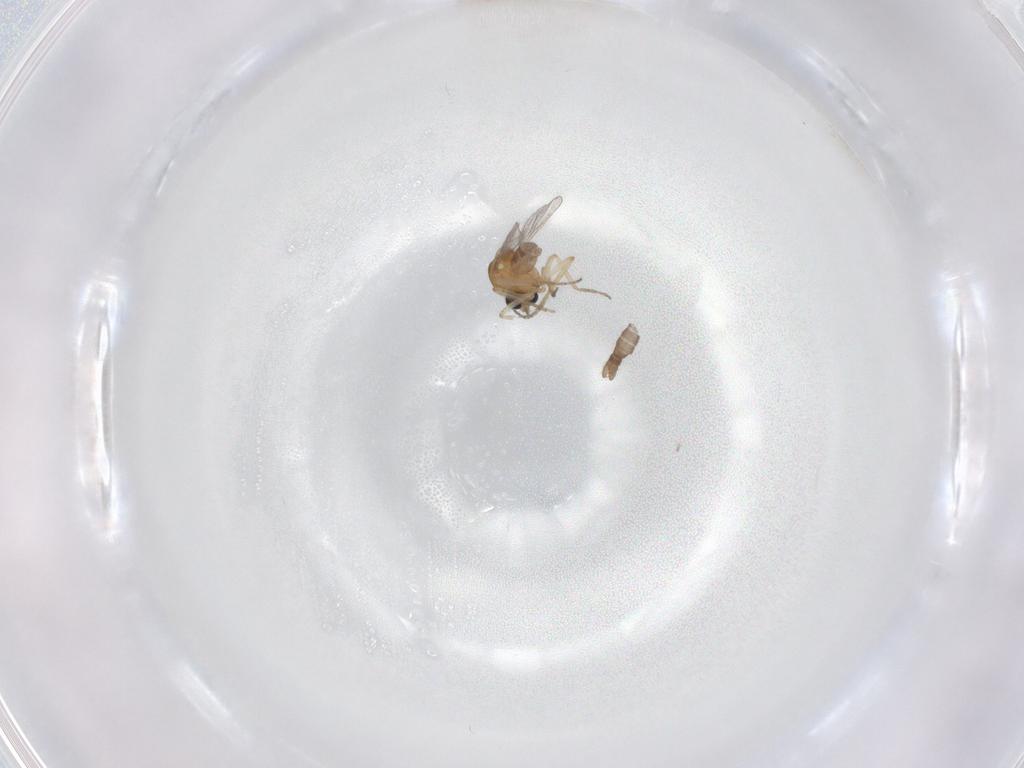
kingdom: Animalia
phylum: Arthropoda
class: Insecta
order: Diptera
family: Ceratopogonidae
